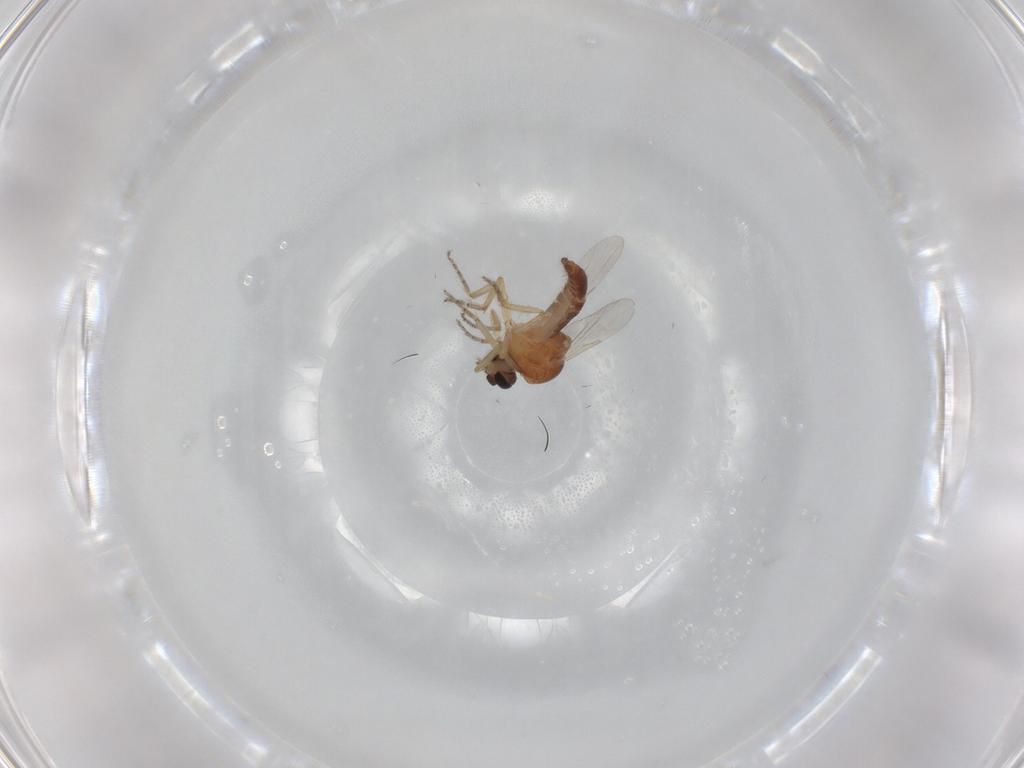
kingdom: Animalia
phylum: Arthropoda
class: Insecta
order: Diptera
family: Ceratopogonidae
